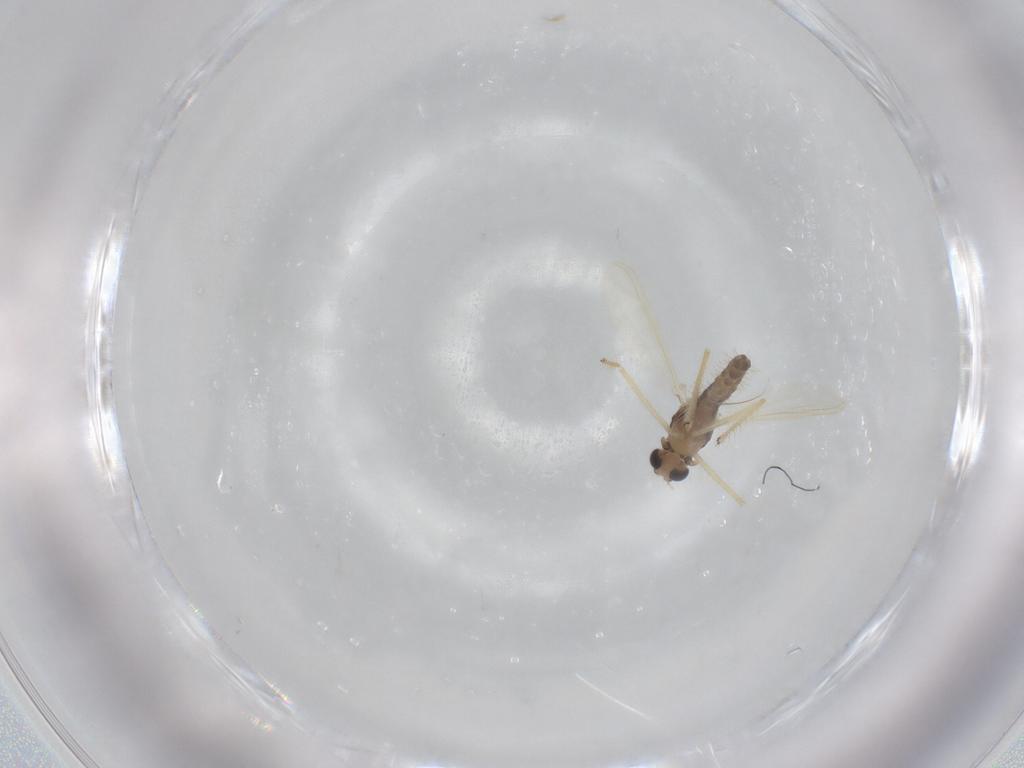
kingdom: Animalia
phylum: Arthropoda
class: Insecta
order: Diptera
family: Chironomidae
